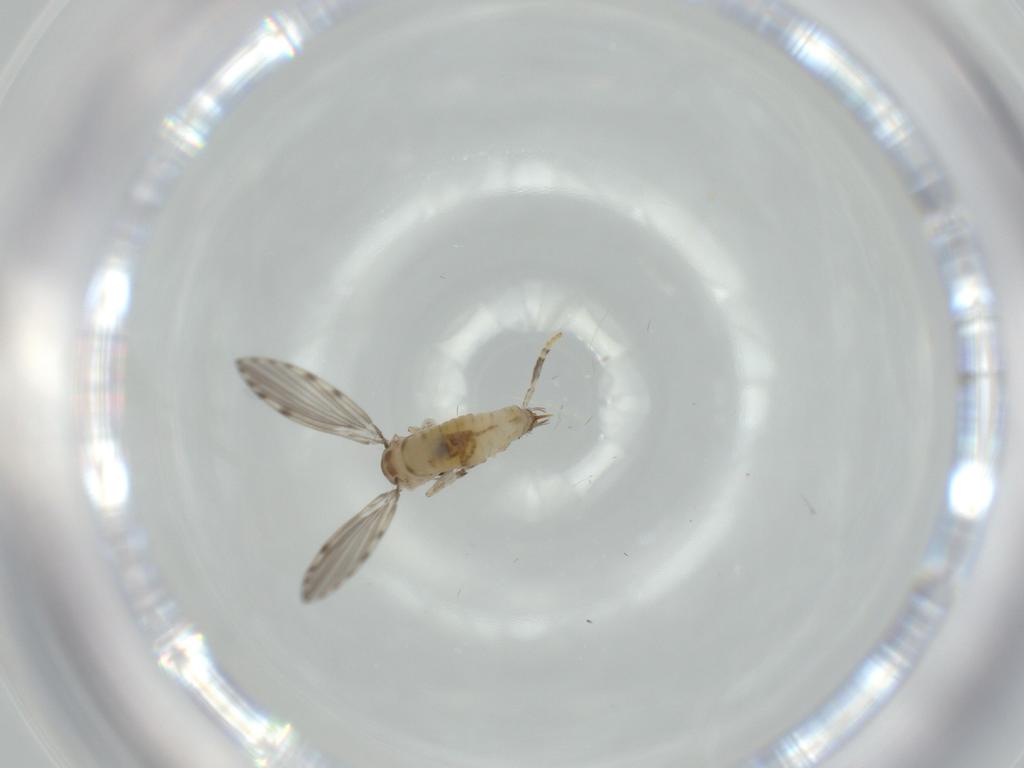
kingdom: Animalia
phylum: Arthropoda
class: Insecta
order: Diptera
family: Psychodidae
